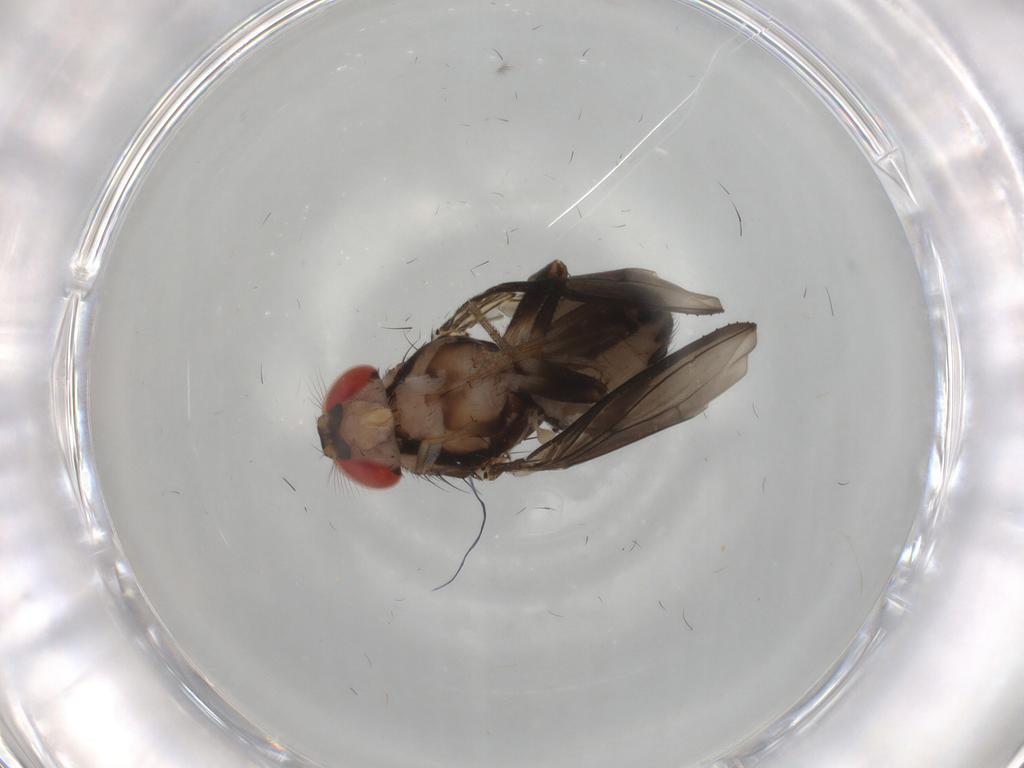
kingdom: Animalia
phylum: Arthropoda
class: Insecta
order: Diptera
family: Drosophilidae
